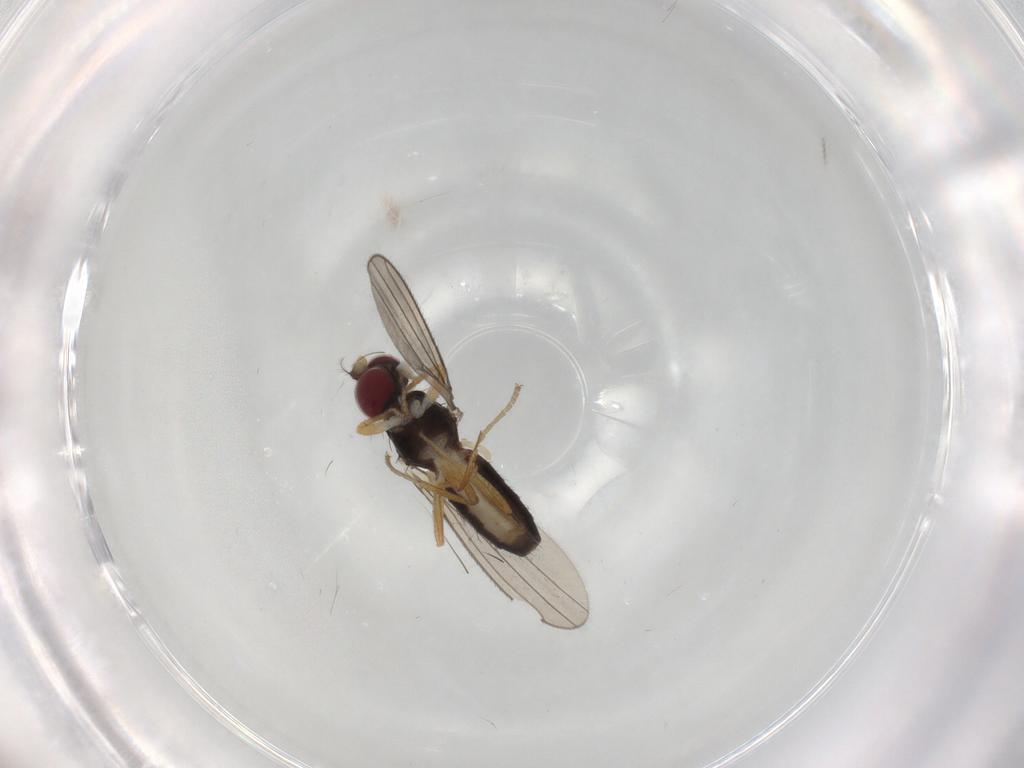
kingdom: Animalia
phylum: Arthropoda
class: Insecta
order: Diptera
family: Anthomyzidae
